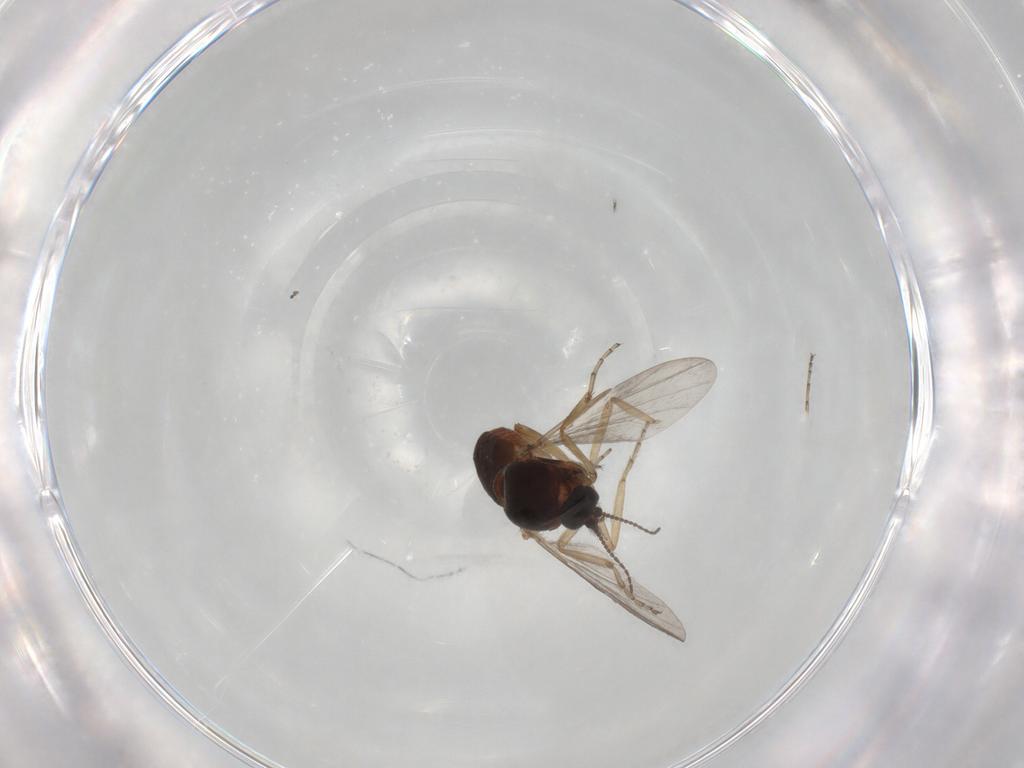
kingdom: Animalia
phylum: Arthropoda
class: Insecta
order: Diptera
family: Ceratopogonidae
